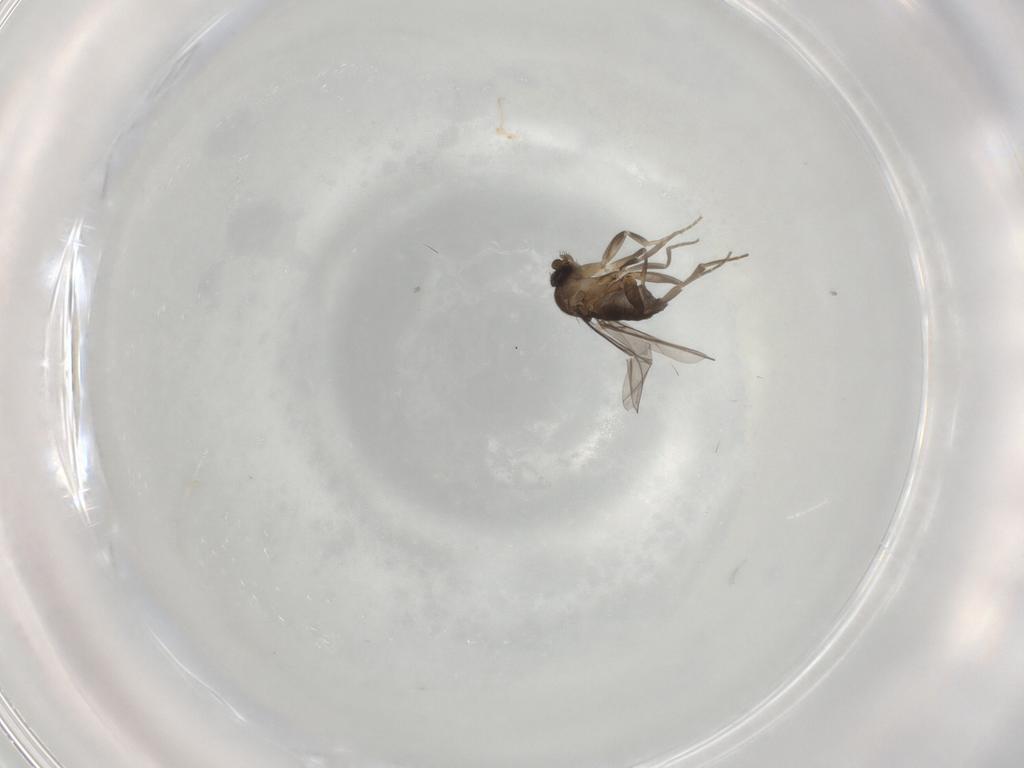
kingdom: Animalia
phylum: Arthropoda
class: Insecta
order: Diptera
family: Phoridae
